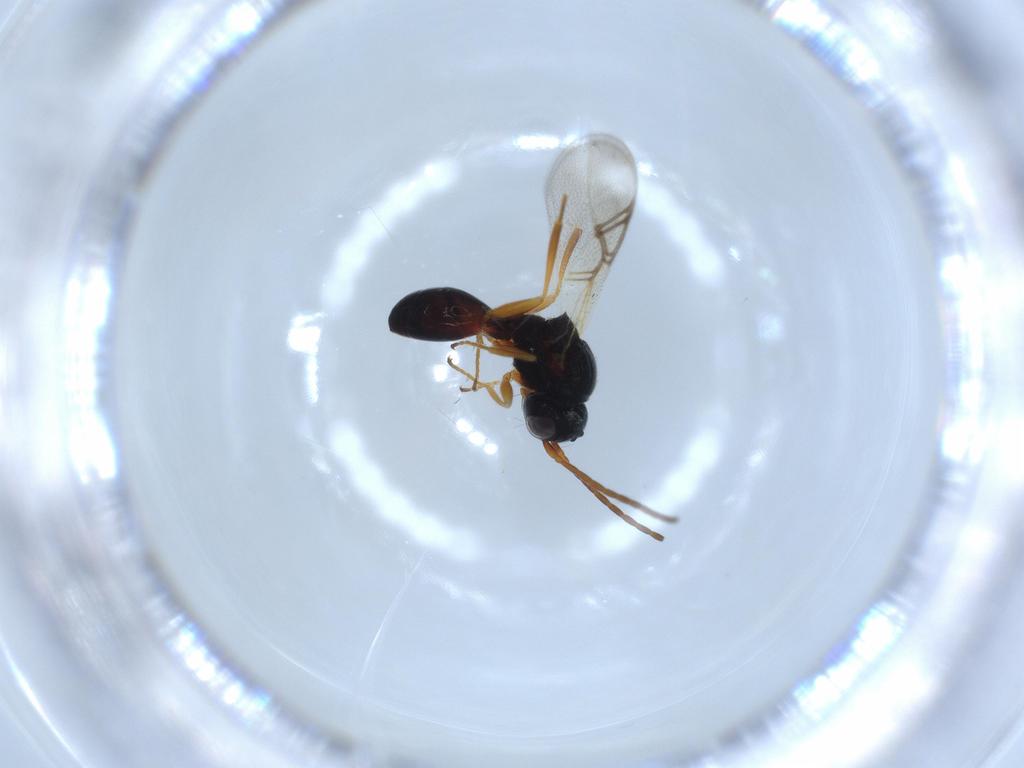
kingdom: Animalia
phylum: Arthropoda
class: Insecta
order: Hymenoptera
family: Figitidae
